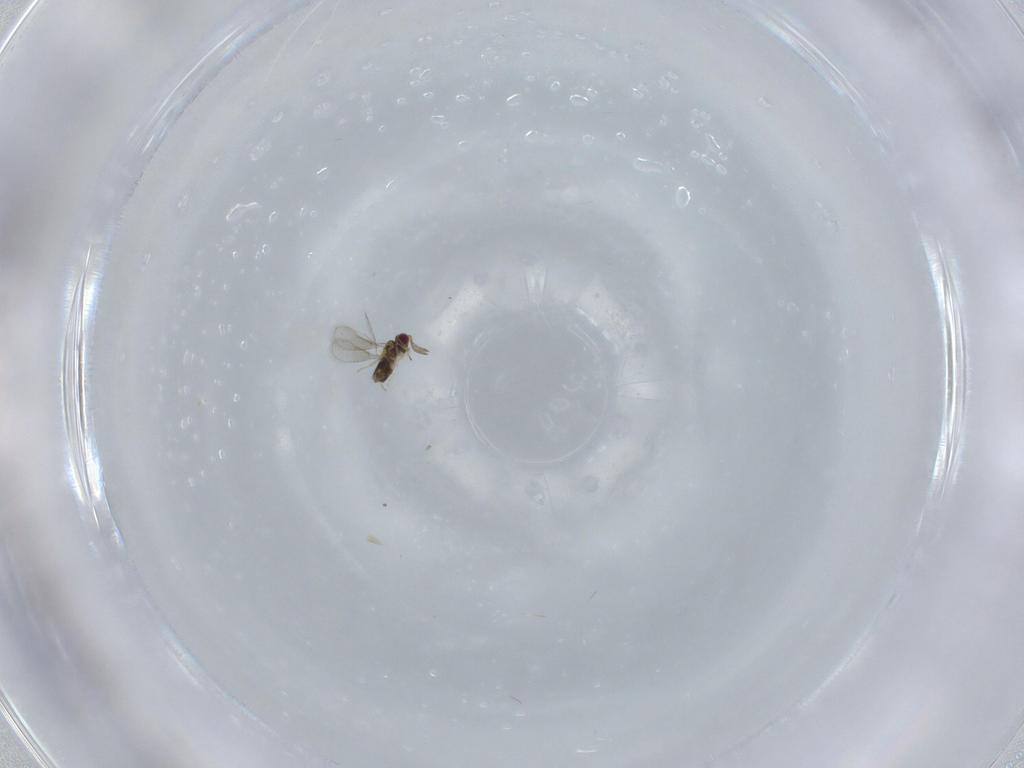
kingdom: Animalia
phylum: Arthropoda
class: Insecta
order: Hymenoptera
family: Aphelinidae
